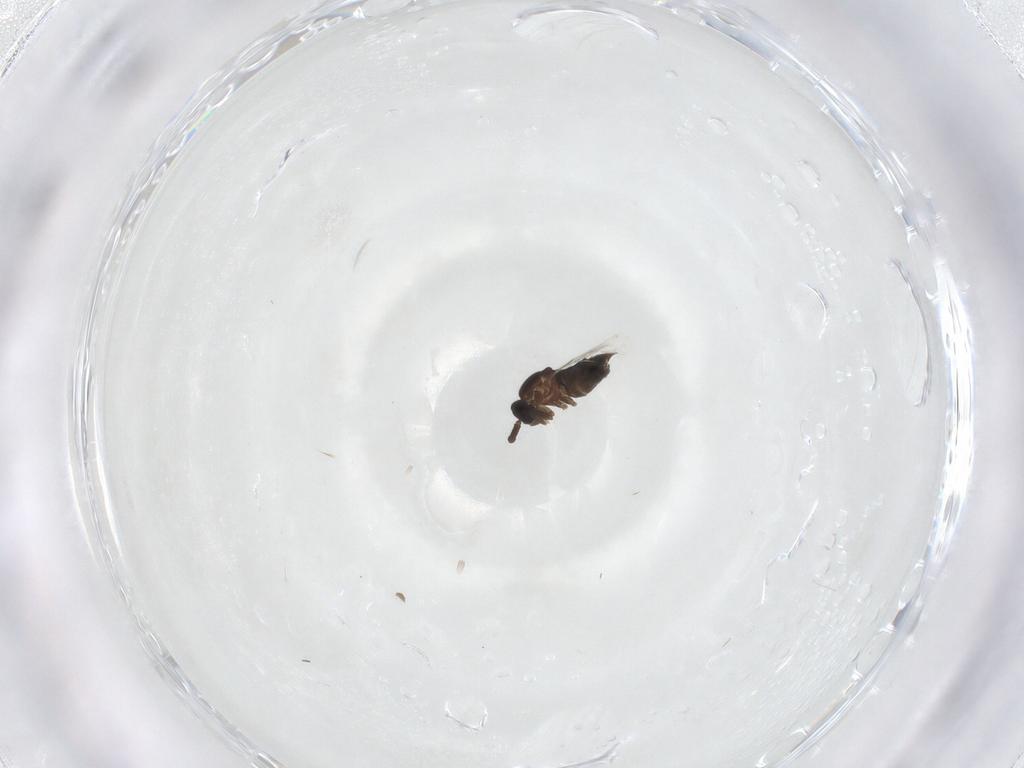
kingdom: Animalia
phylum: Arthropoda
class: Insecta
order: Diptera
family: Scatopsidae
